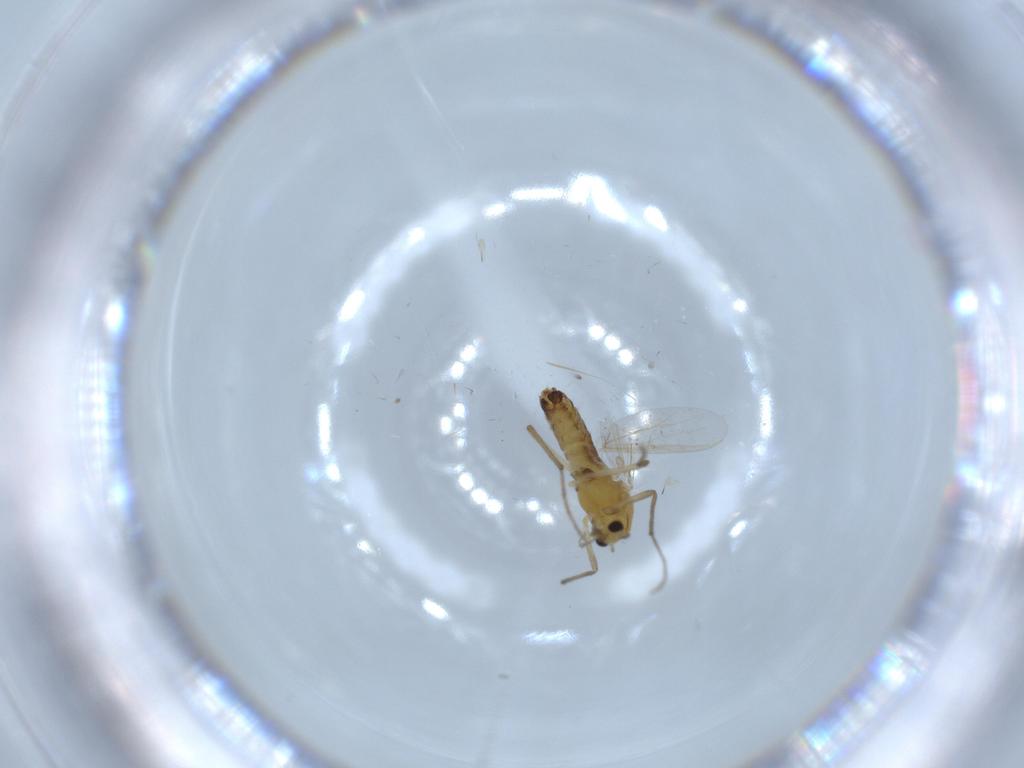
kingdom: Animalia
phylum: Arthropoda
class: Insecta
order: Diptera
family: Chironomidae
